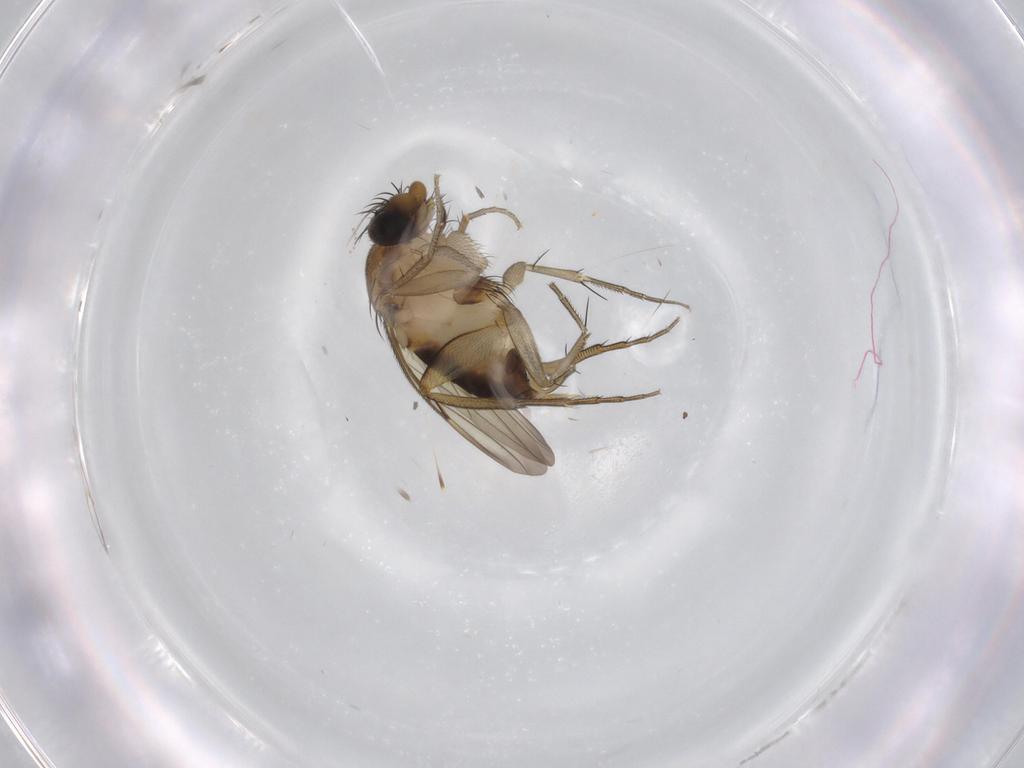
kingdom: Animalia
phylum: Arthropoda
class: Insecta
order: Diptera
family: Phoridae
